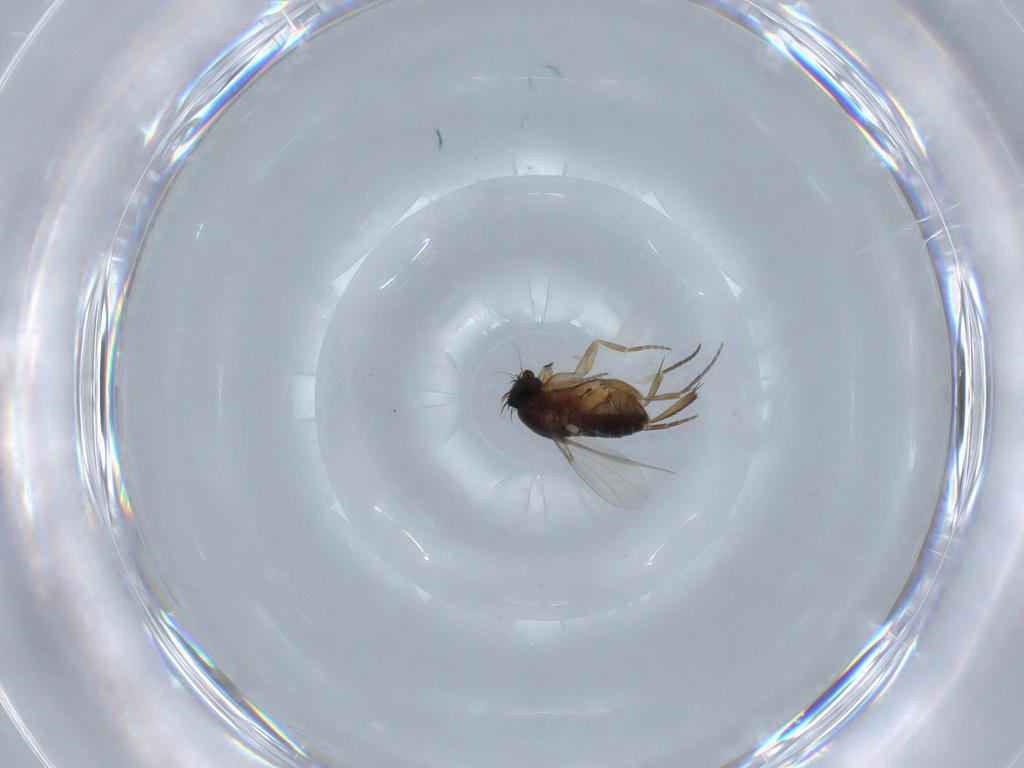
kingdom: Animalia
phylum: Arthropoda
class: Insecta
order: Diptera
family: Phoridae
